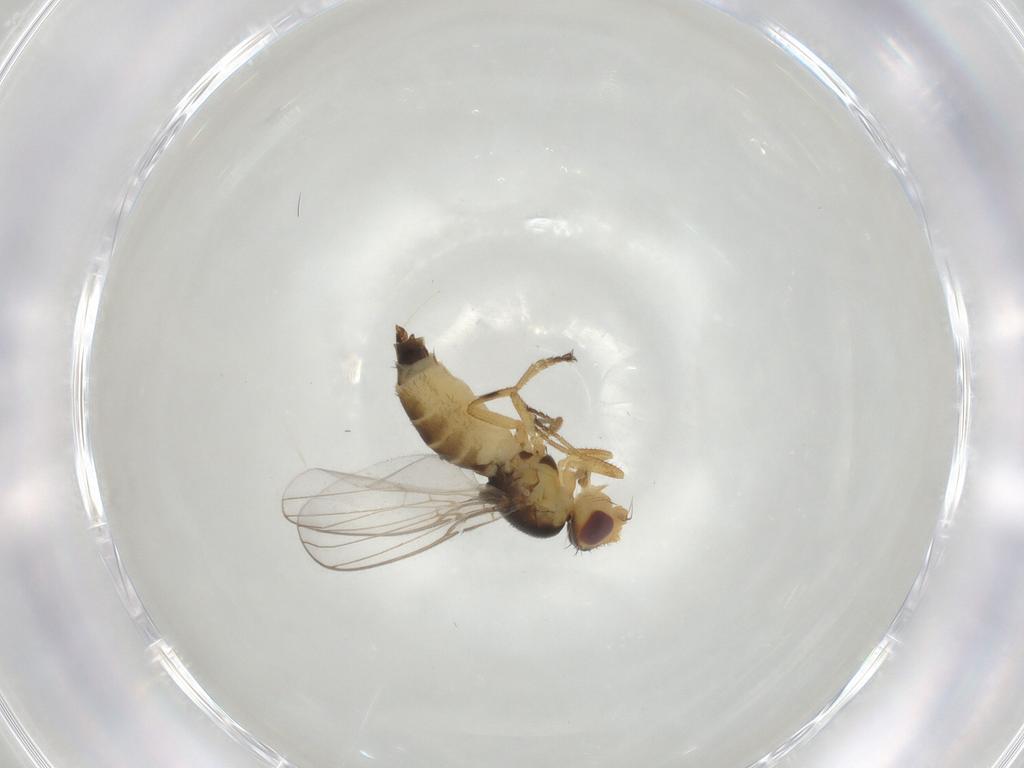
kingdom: Animalia
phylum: Arthropoda
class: Insecta
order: Diptera
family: Chloropidae
